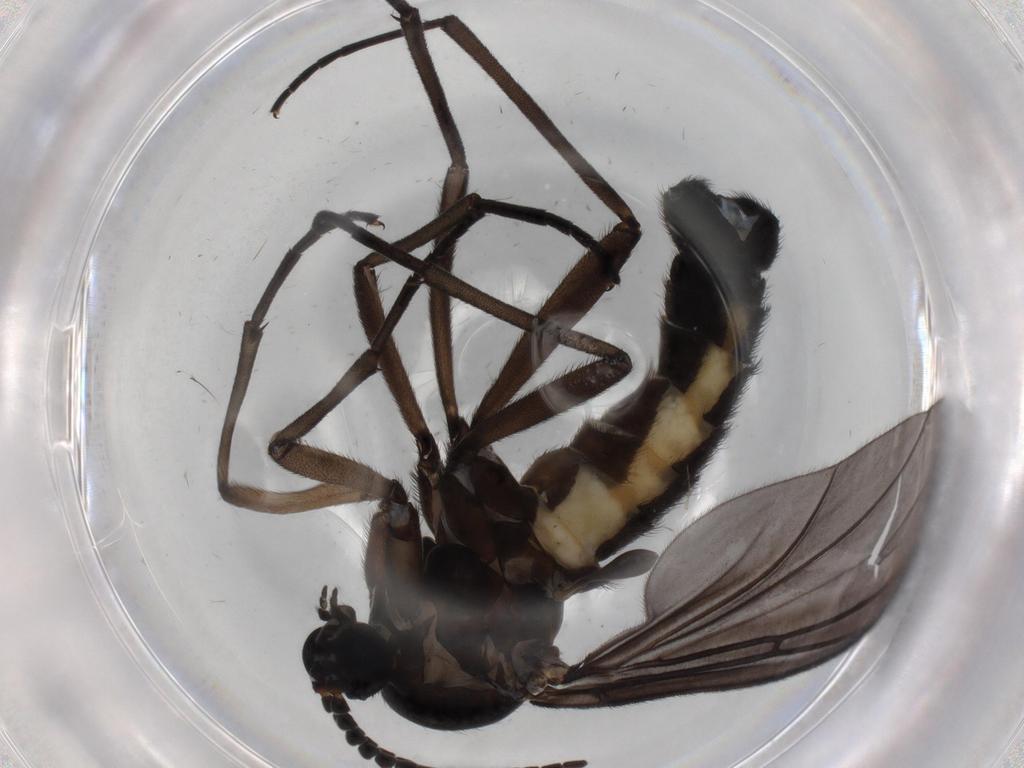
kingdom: Animalia
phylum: Arthropoda
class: Insecta
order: Diptera
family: Sciaridae
